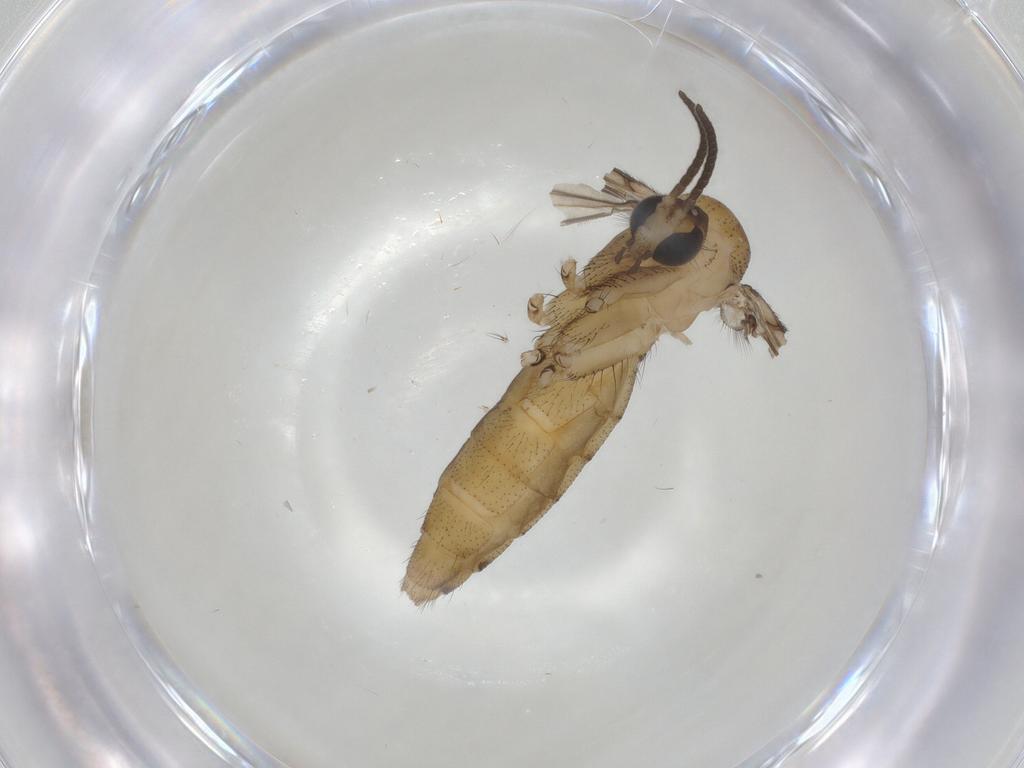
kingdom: Animalia
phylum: Arthropoda
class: Insecta
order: Diptera
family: Mycetophilidae
